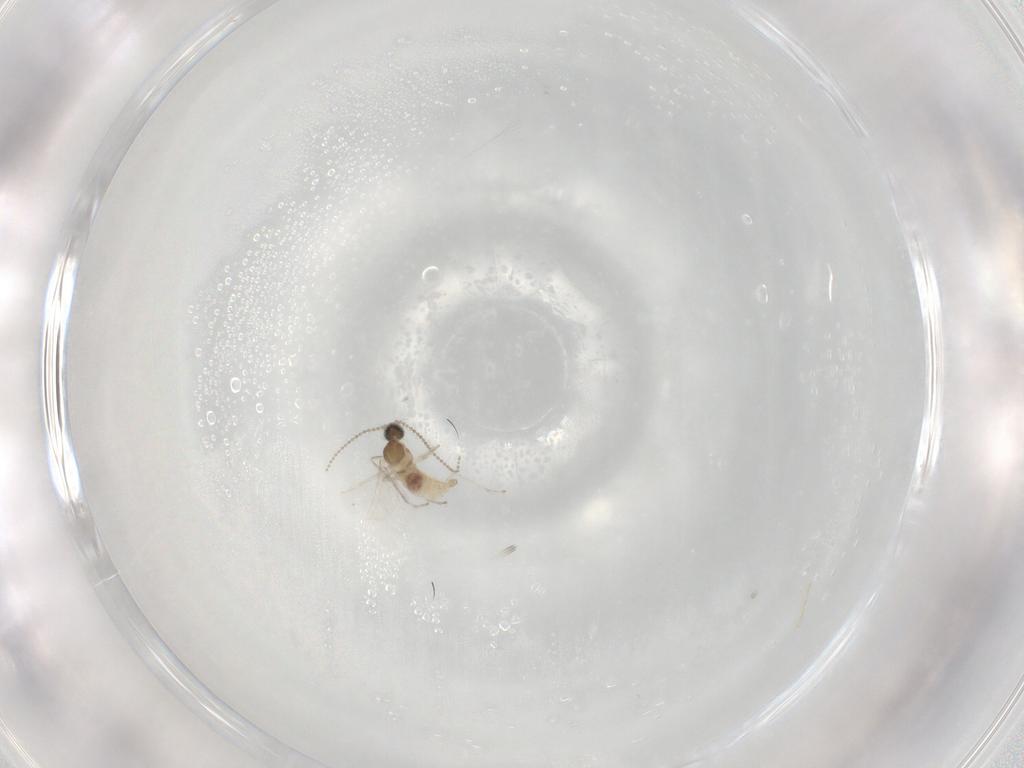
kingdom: Animalia
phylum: Arthropoda
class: Insecta
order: Diptera
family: Cecidomyiidae
